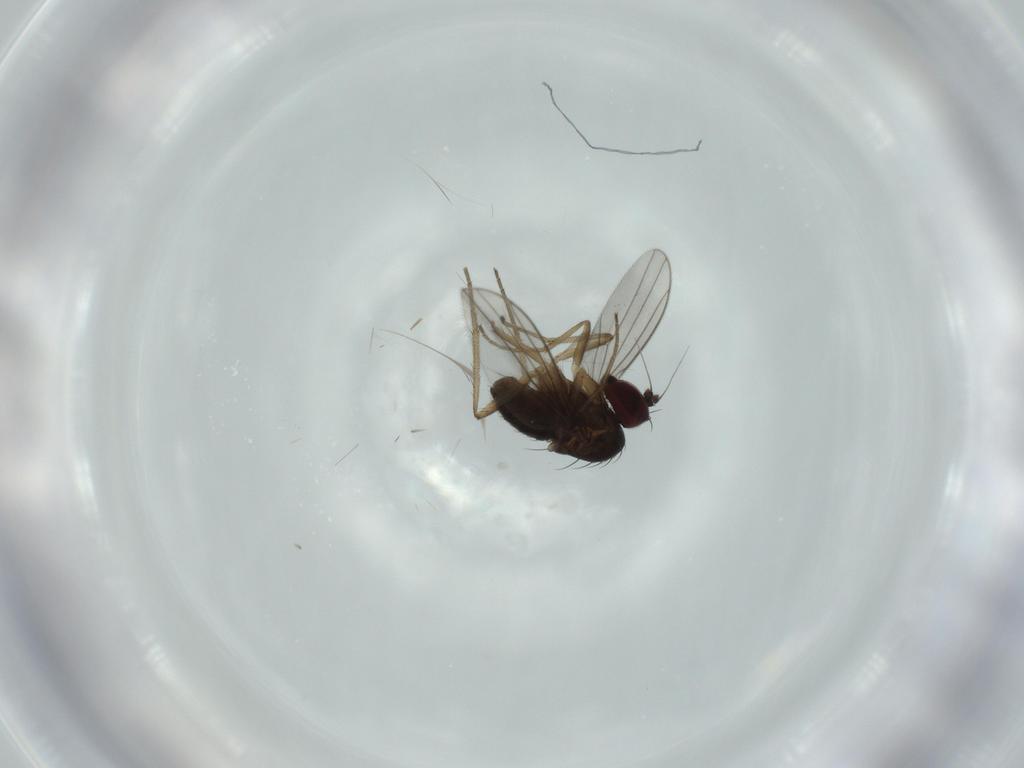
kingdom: Animalia
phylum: Arthropoda
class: Insecta
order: Diptera
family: Dolichopodidae
